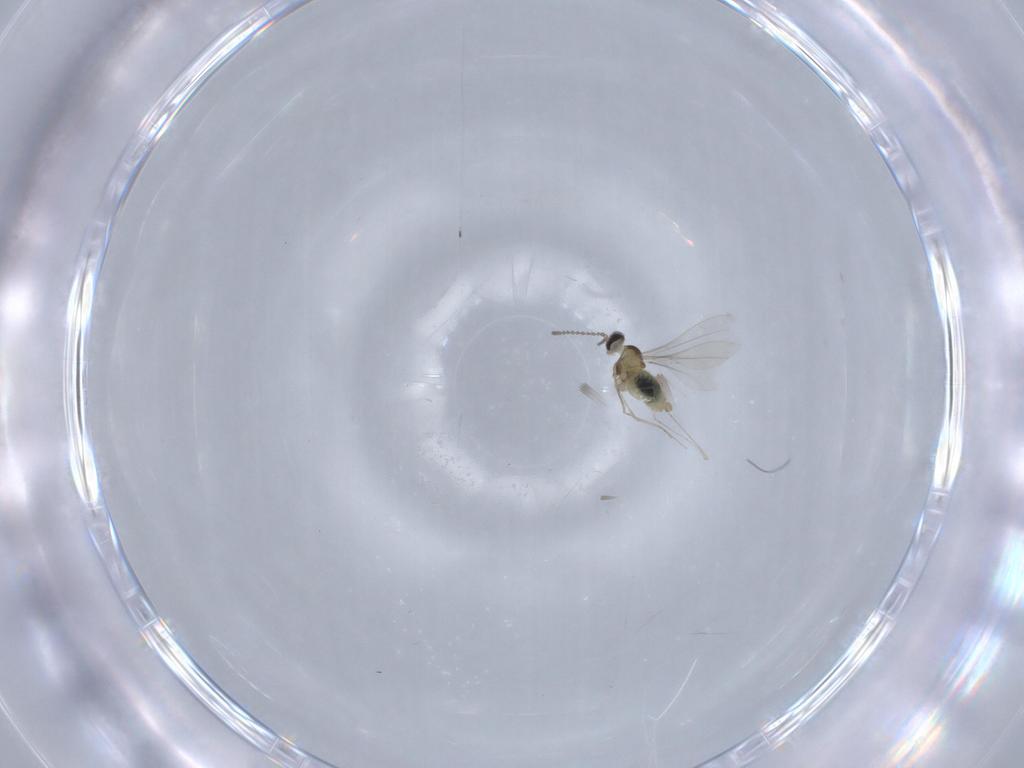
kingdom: Animalia
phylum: Arthropoda
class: Insecta
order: Diptera
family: Cecidomyiidae
